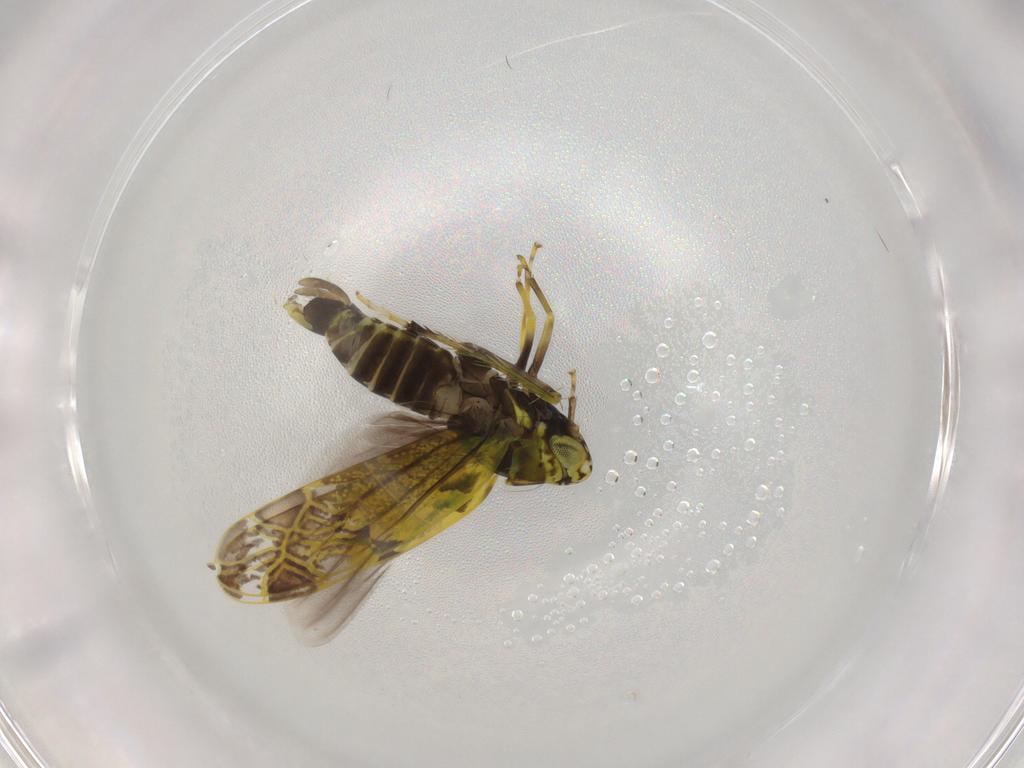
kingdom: Animalia
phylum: Arthropoda
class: Insecta
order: Hemiptera
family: Cicadellidae
